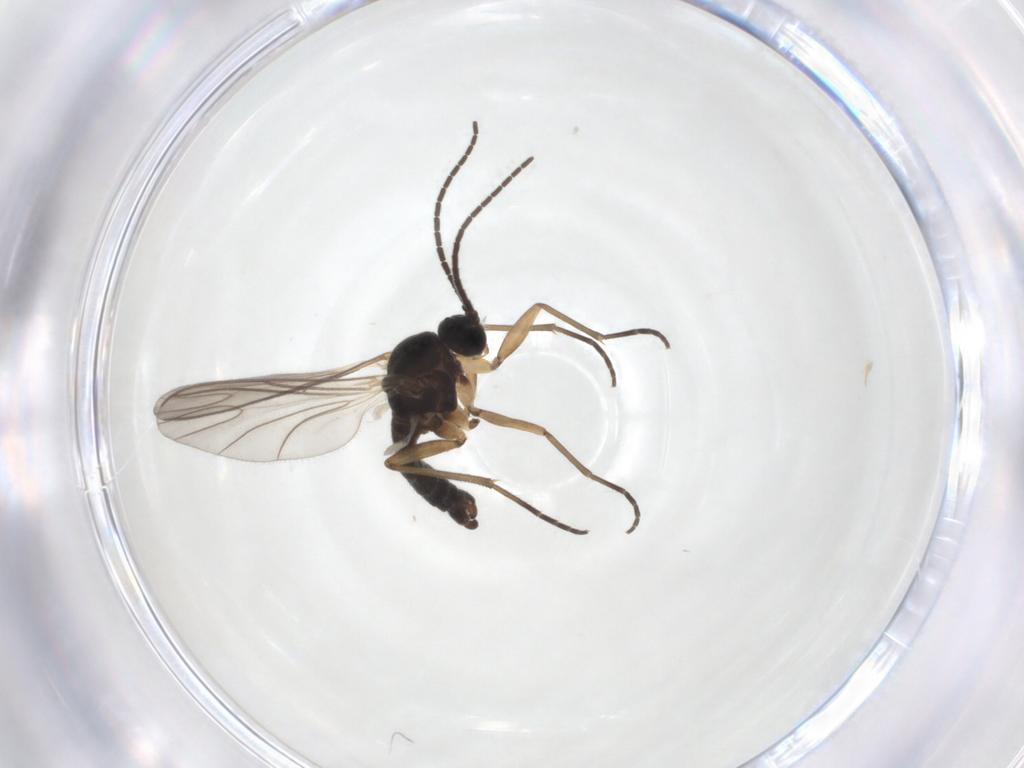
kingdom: Animalia
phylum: Arthropoda
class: Insecta
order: Diptera
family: Sciaridae
